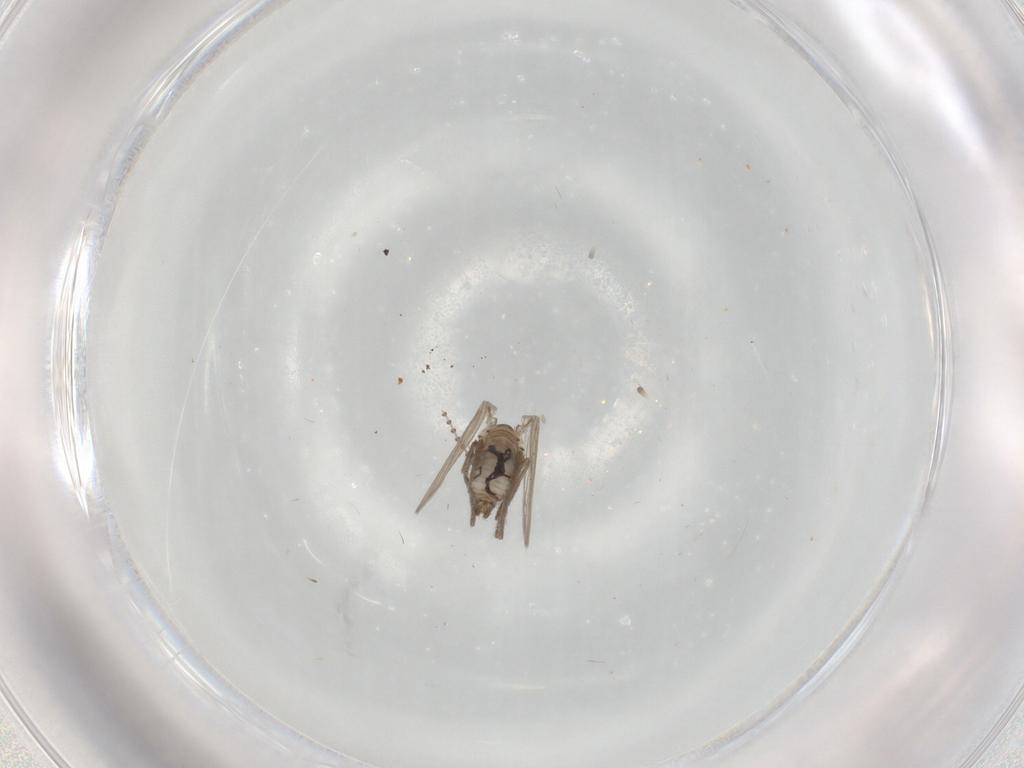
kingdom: Animalia
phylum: Arthropoda
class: Insecta
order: Diptera
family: Psychodidae
